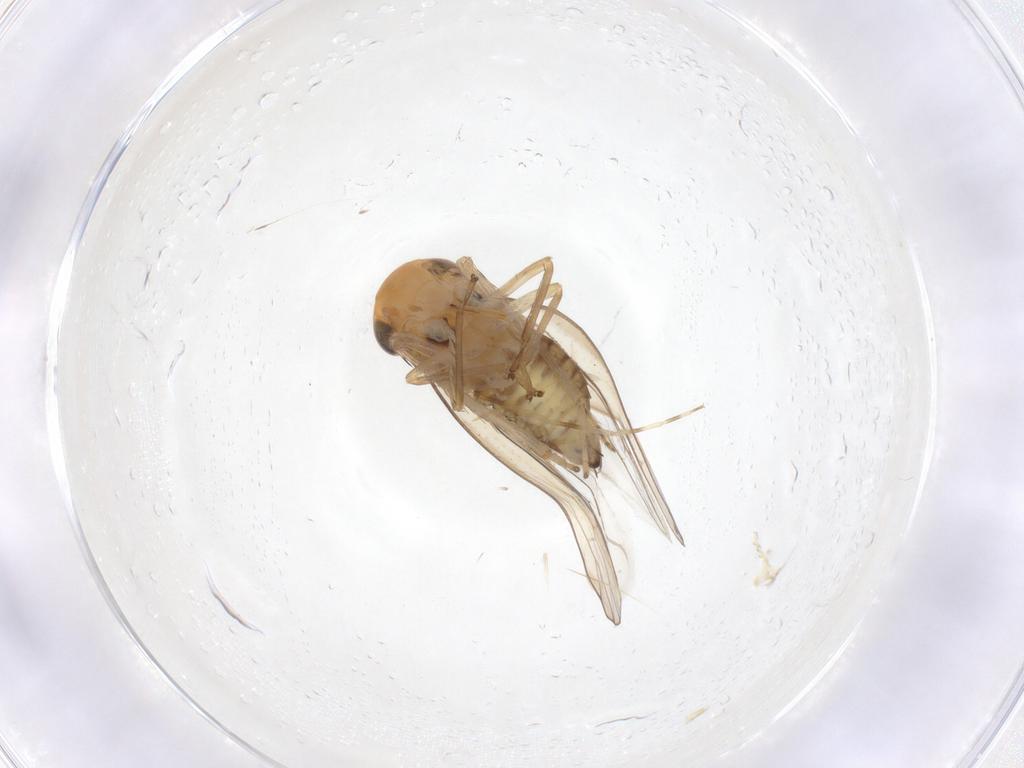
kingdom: Animalia
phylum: Arthropoda
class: Insecta
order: Hemiptera
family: Cicadellidae
